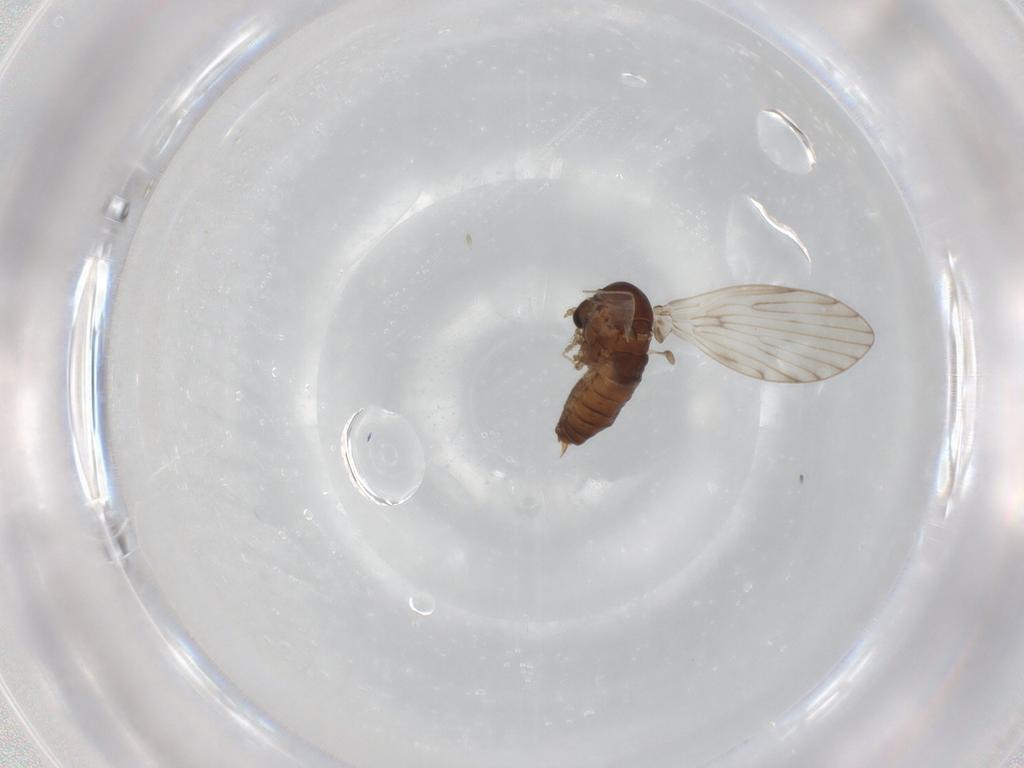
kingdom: Animalia
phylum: Arthropoda
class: Insecta
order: Diptera
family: Psychodidae
